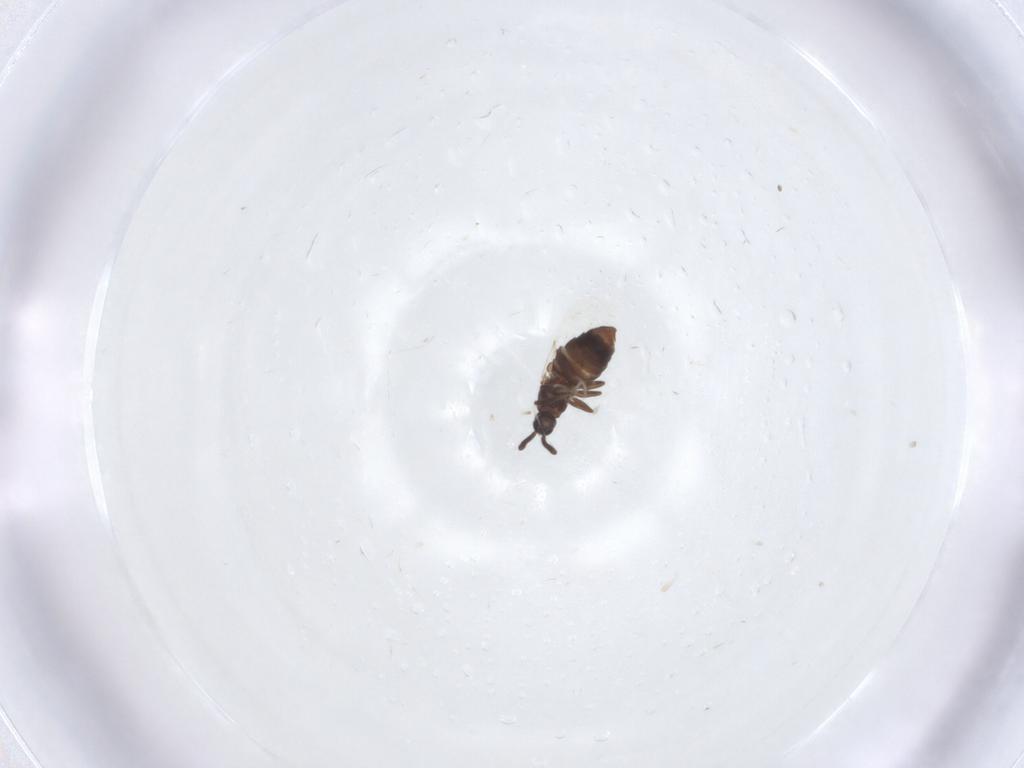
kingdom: Animalia
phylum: Arthropoda
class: Insecta
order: Diptera
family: Scatopsidae
